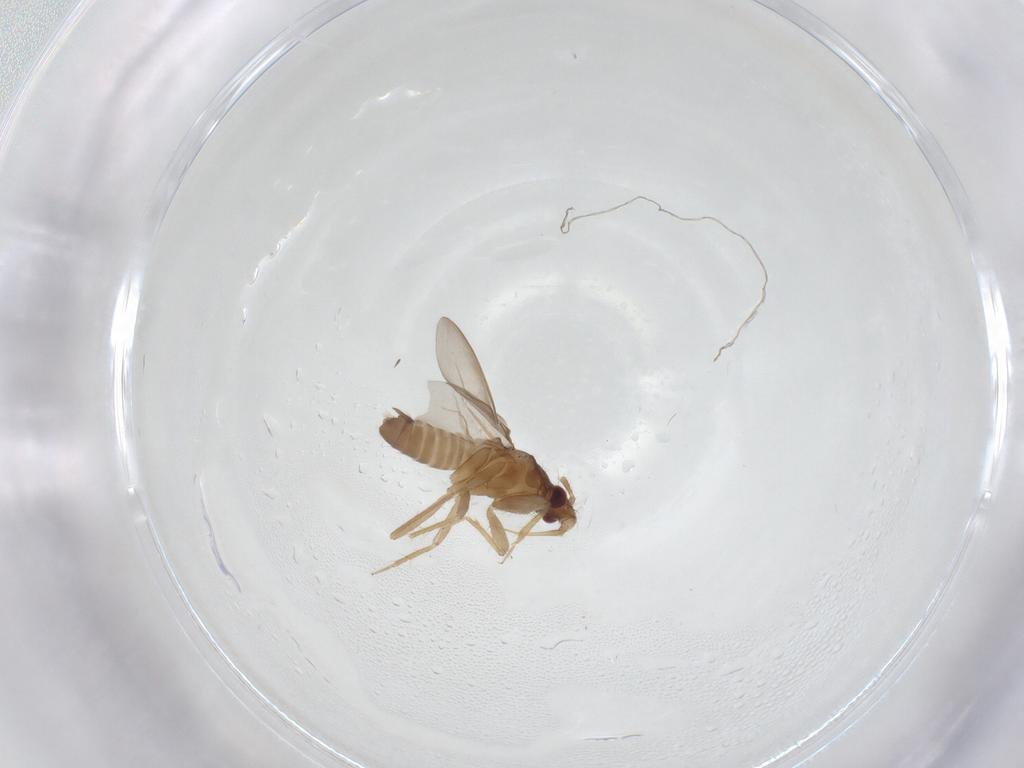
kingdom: Animalia
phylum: Arthropoda
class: Insecta
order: Hemiptera
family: Ceratocombidae
